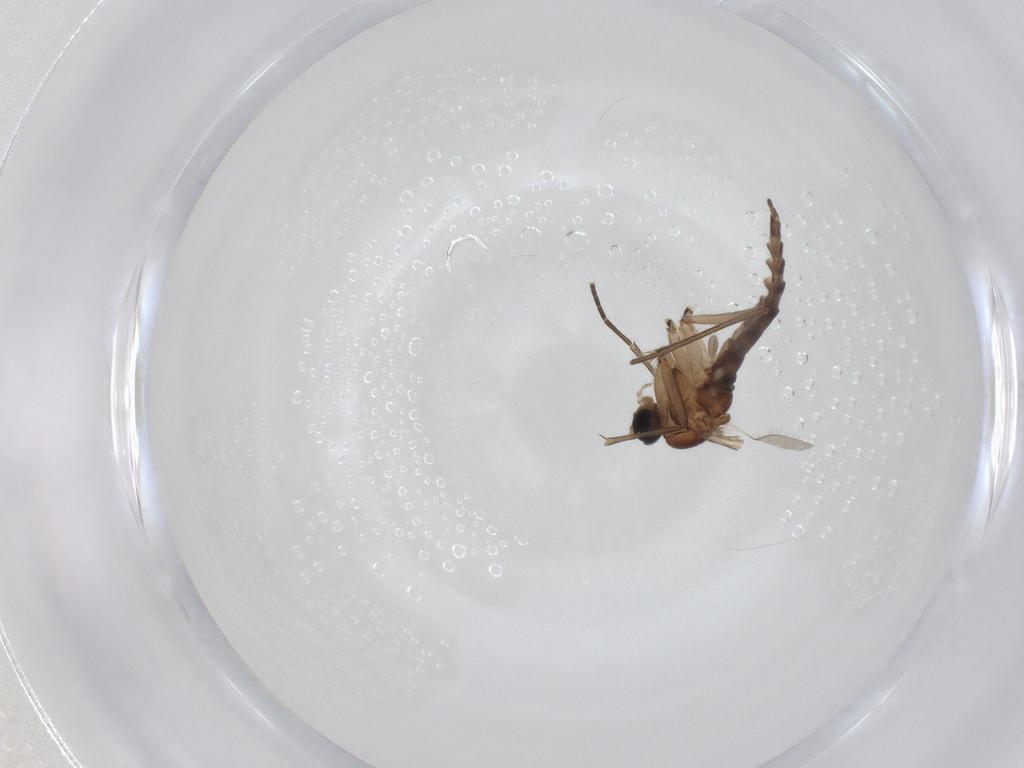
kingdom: Animalia
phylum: Arthropoda
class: Insecta
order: Diptera
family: Sciaridae
